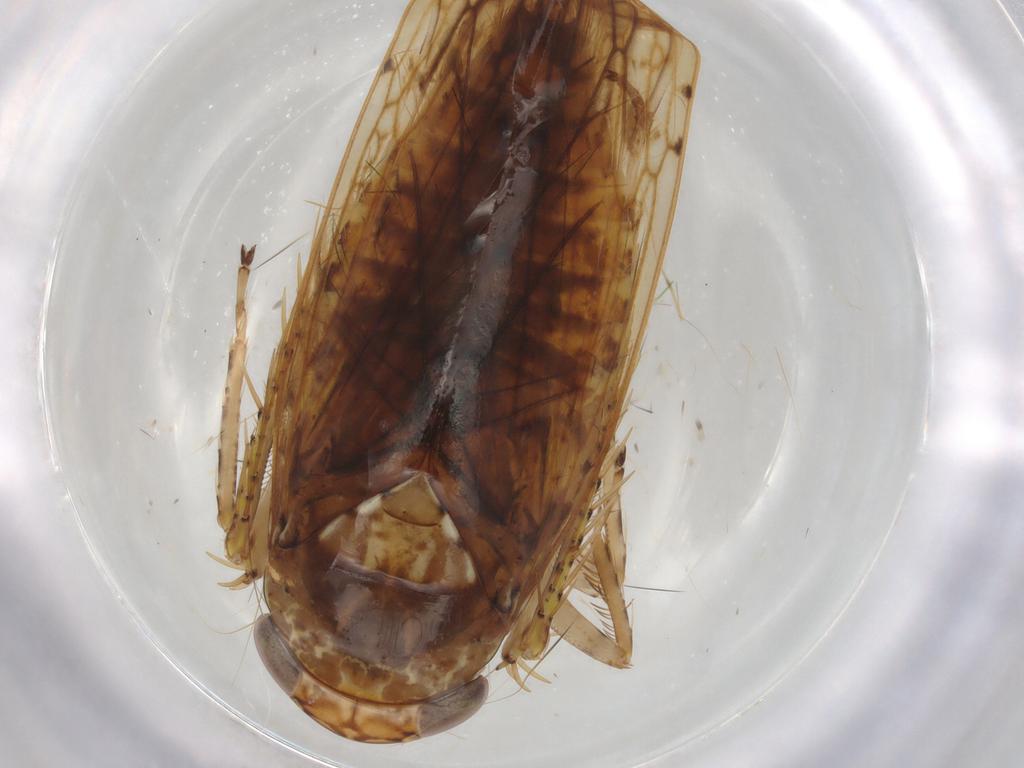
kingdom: Animalia
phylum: Arthropoda
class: Insecta
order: Hemiptera
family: Cicadellidae
